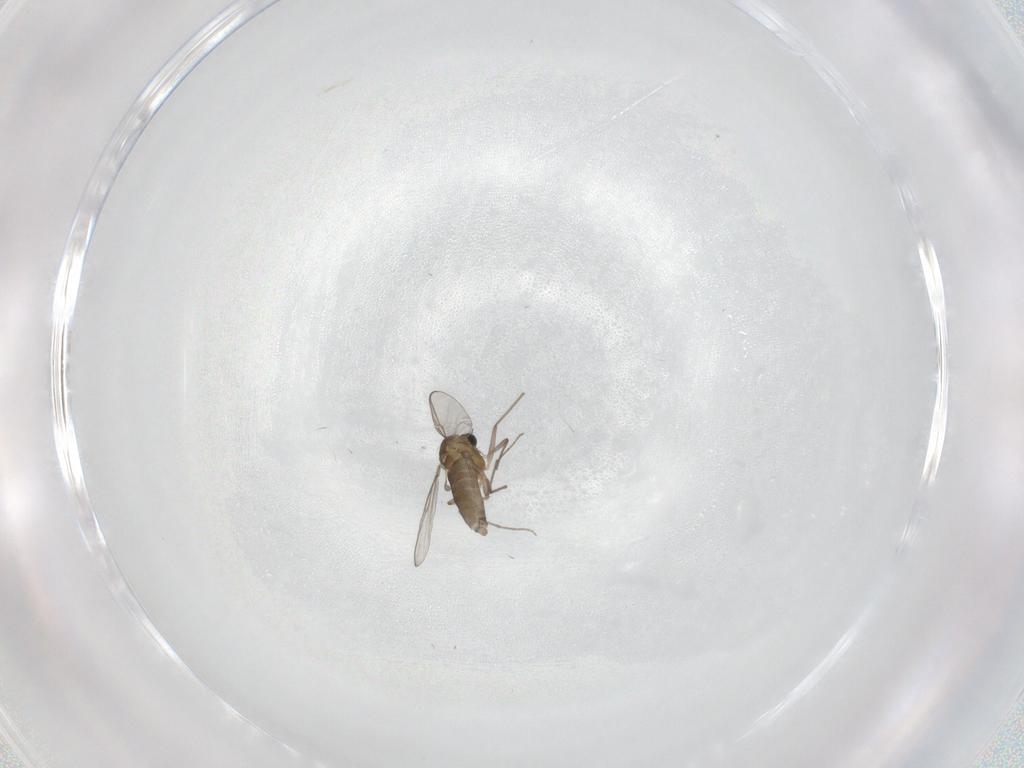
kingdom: Animalia
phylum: Arthropoda
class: Insecta
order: Diptera
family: Chironomidae
